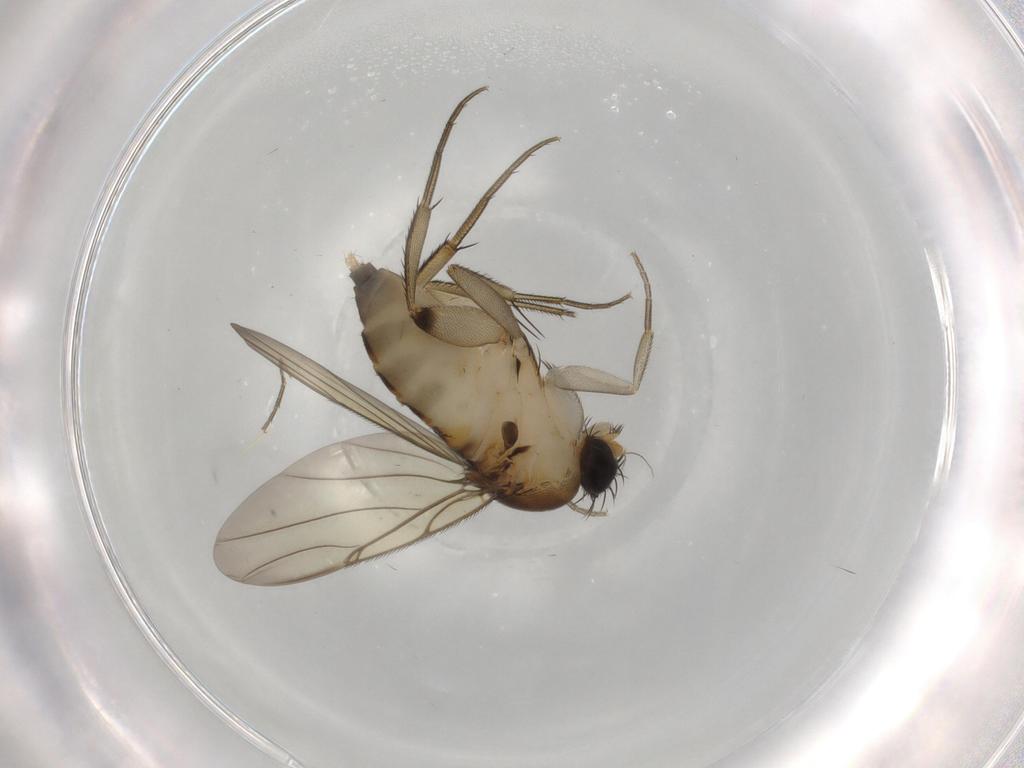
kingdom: Animalia
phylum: Arthropoda
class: Insecta
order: Diptera
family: Phoridae
